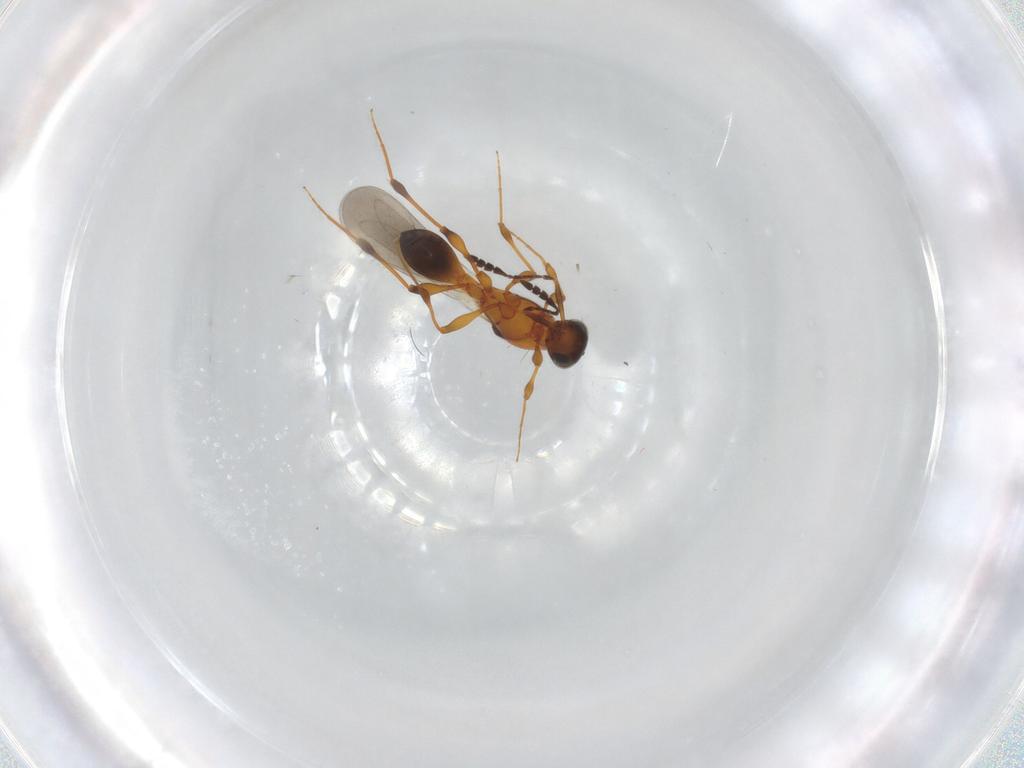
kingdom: Animalia
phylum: Arthropoda
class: Insecta
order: Hymenoptera
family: Platygastridae
